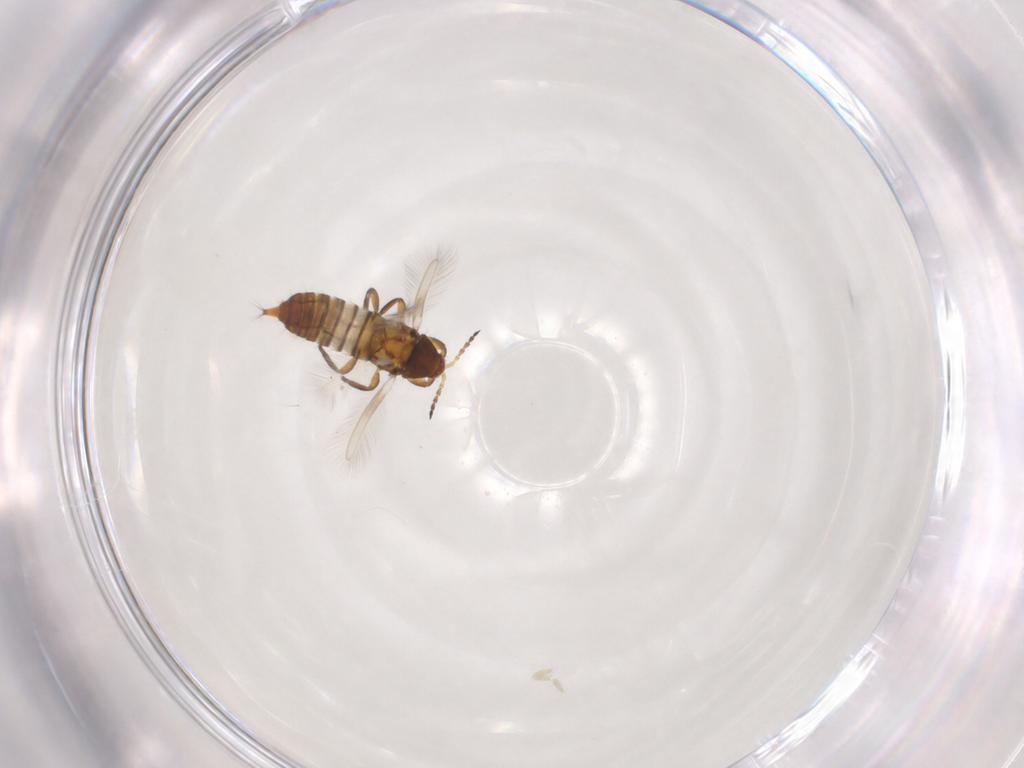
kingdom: Animalia
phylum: Arthropoda
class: Insecta
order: Thysanoptera
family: Phlaeothripidae
